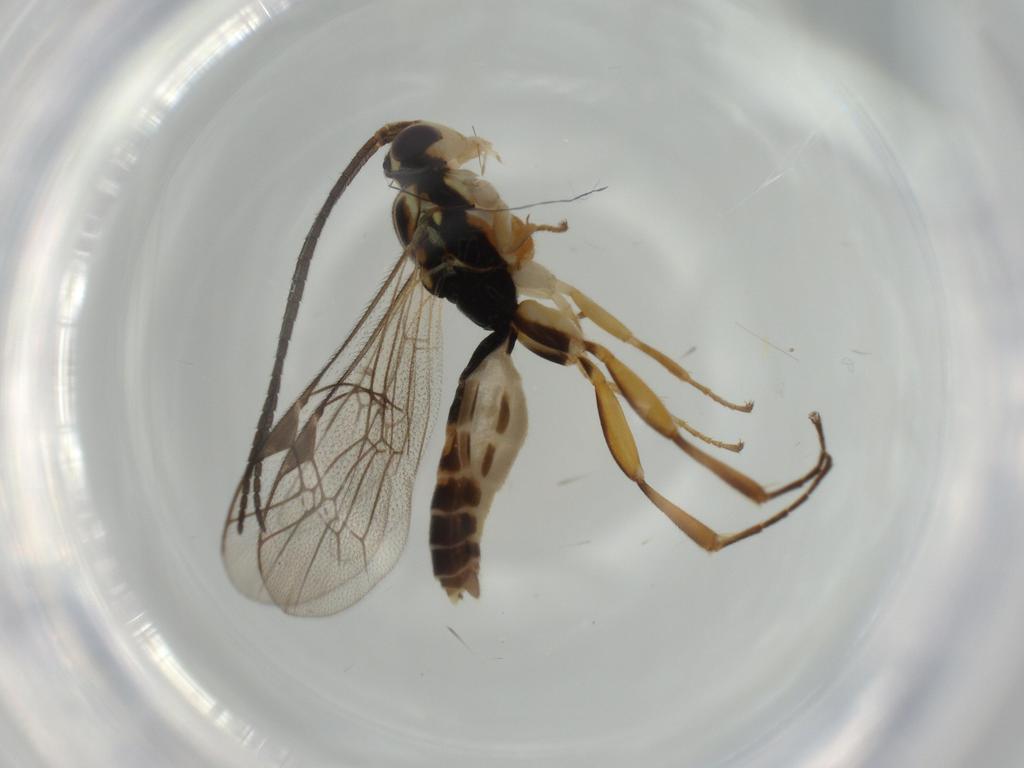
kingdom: Animalia
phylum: Arthropoda
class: Insecta
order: Hymenoptera
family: Ichneumonidae
